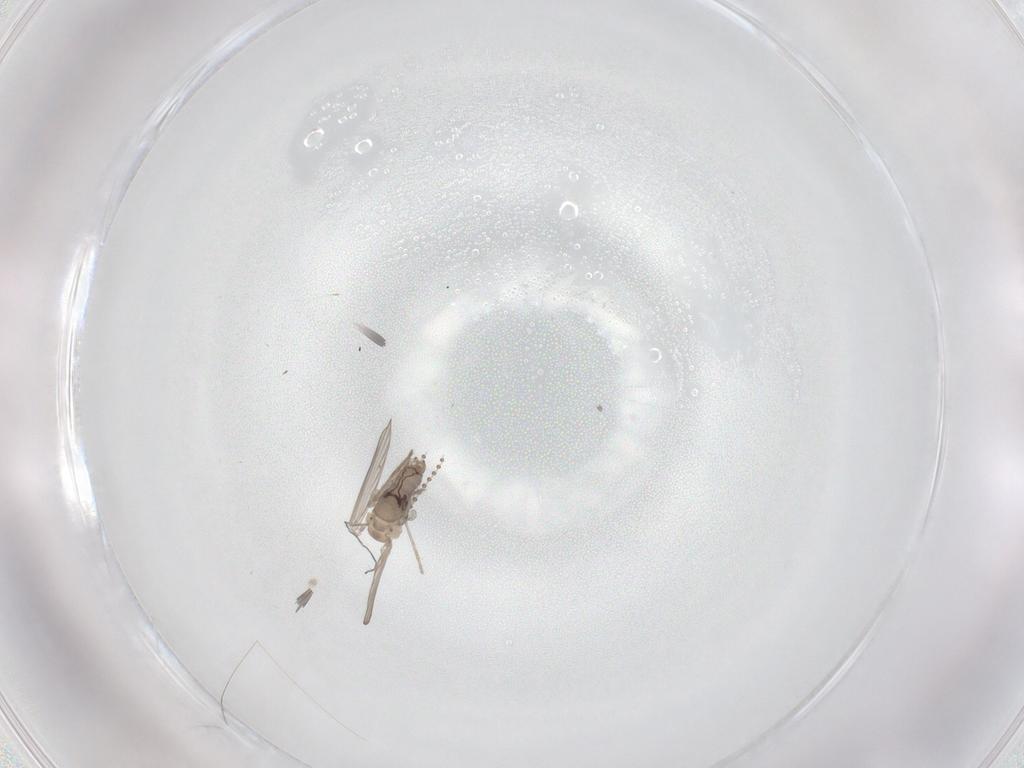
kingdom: Animalia
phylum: Arthropoda
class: Insecta
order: Diptera
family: Psychodidae
